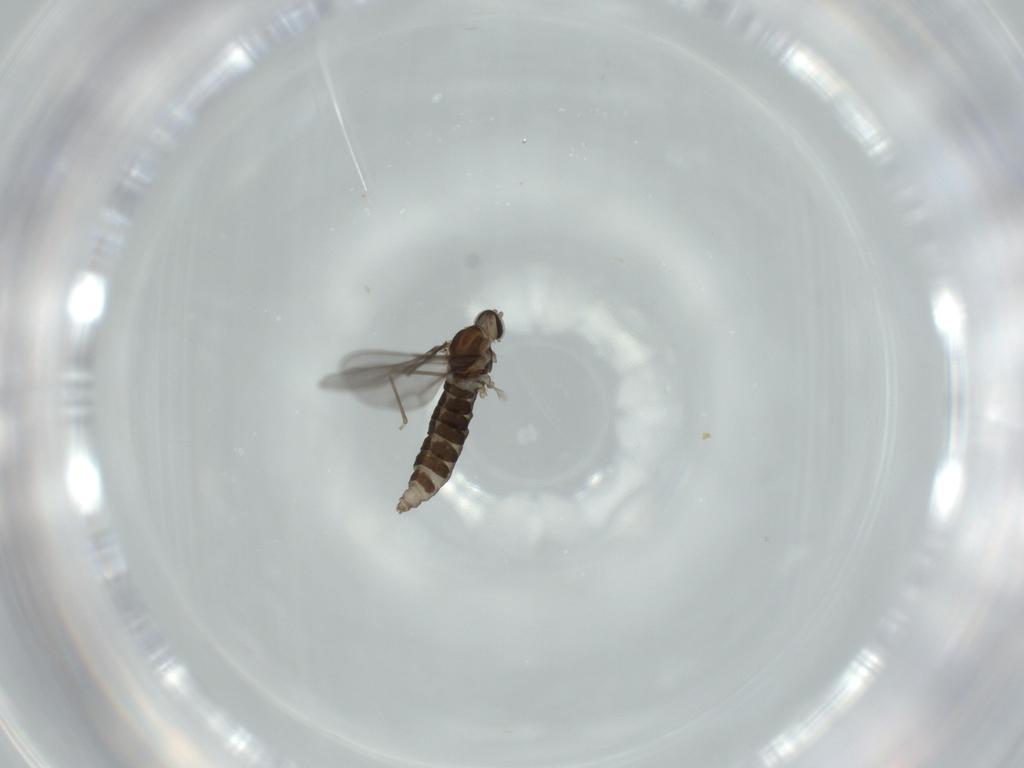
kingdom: Animalia
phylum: Arthropoda
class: Insecta
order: Diptera
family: Cecidomyiidae
